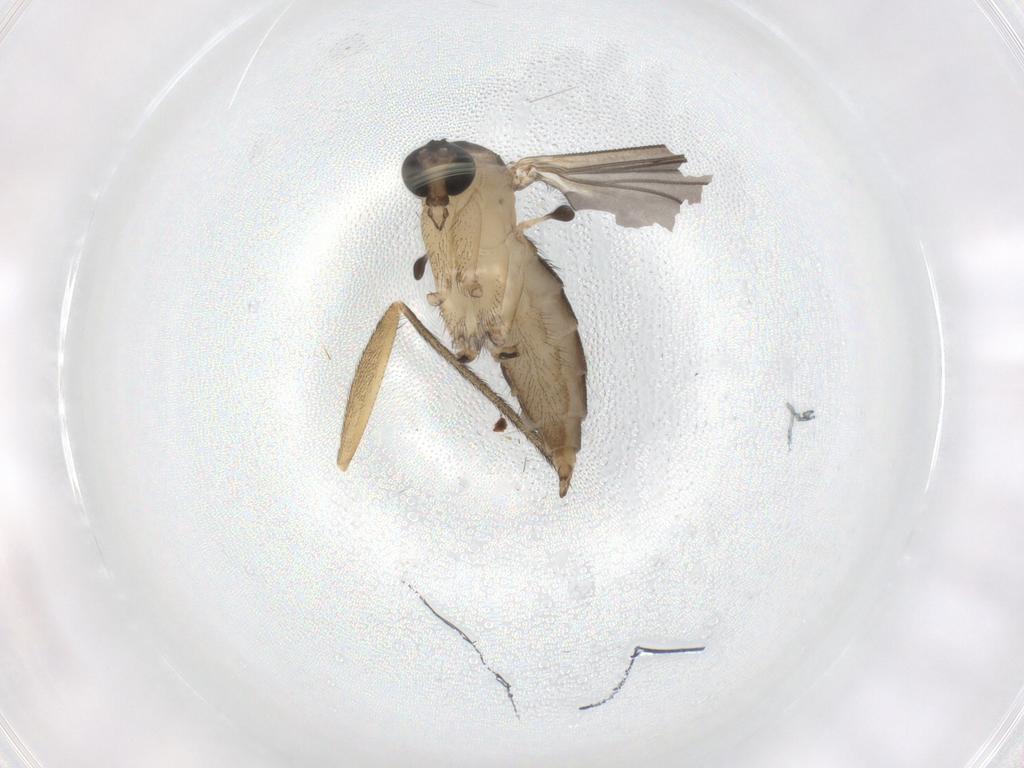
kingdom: Animalia
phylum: Arthropoda
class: Insecta
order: Diptera
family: Sciaridae
